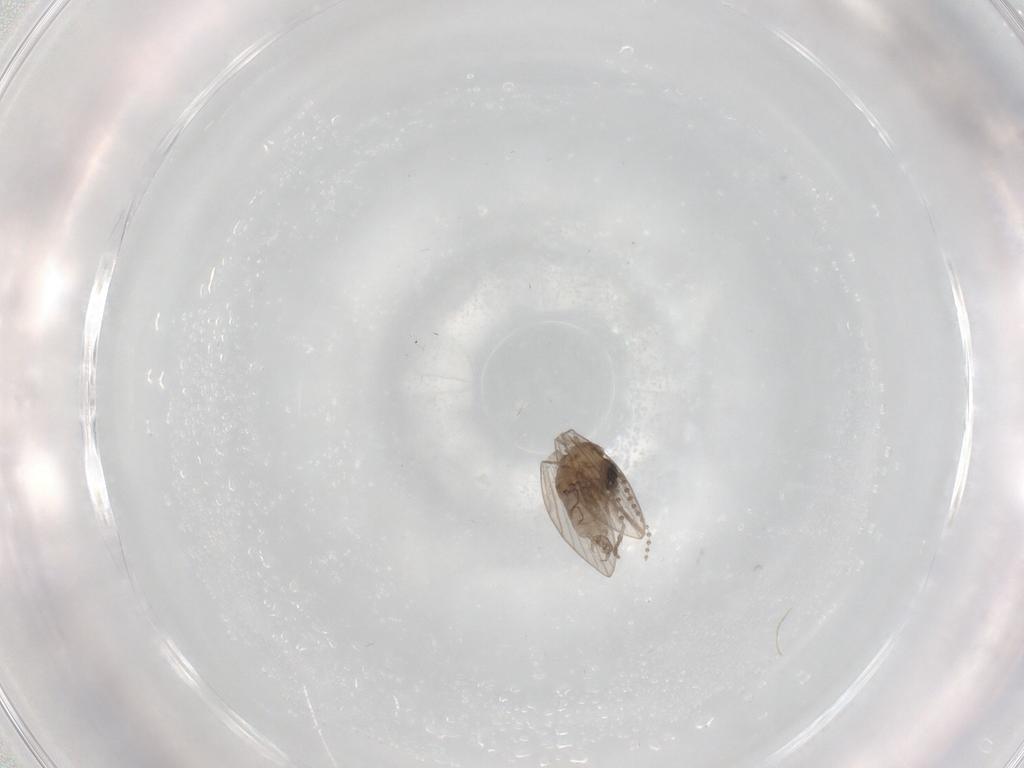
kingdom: Animalia
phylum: Arthropoda
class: Insecta
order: Diptera
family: Psychodidae
